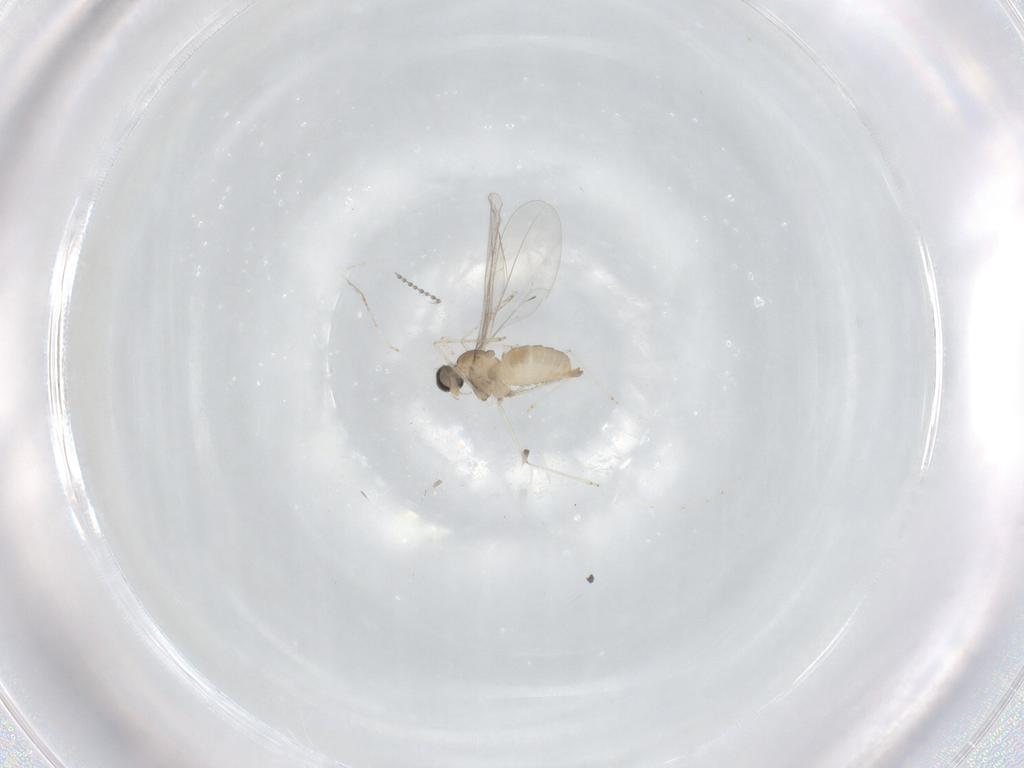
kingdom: Animalia
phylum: Arthropoda
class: Insecta
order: Diptera
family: Cecidomyiidae
